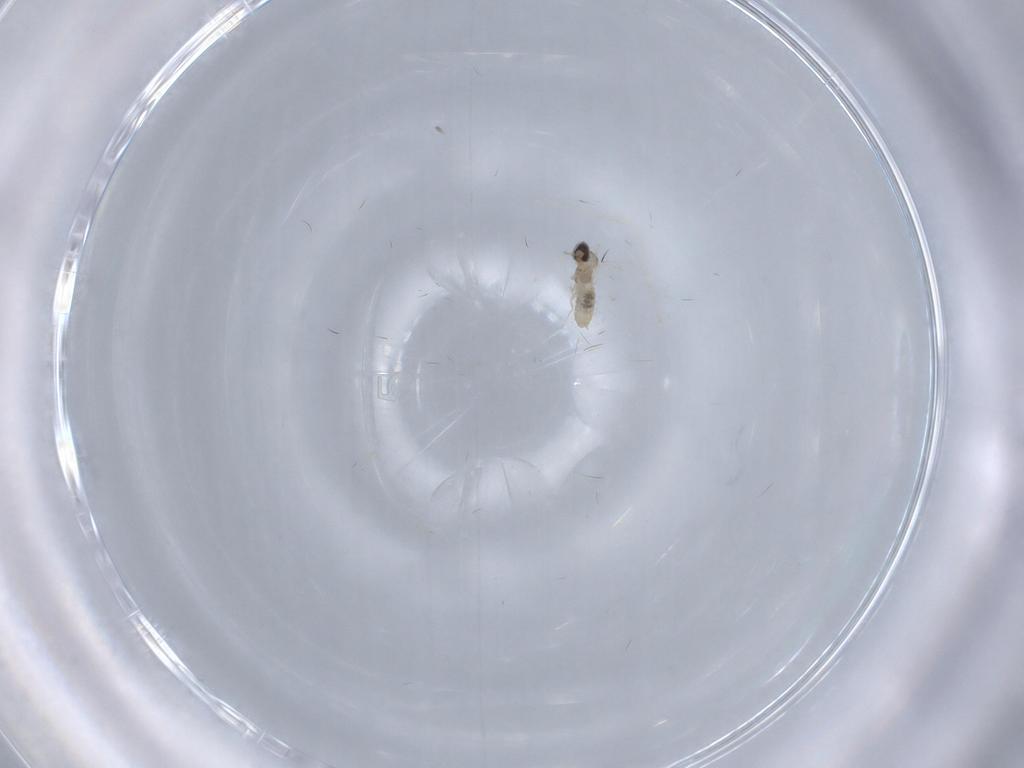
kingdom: Animalia
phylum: Arthropoda
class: Insecta
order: Diptera
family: Cecidomyiidae
